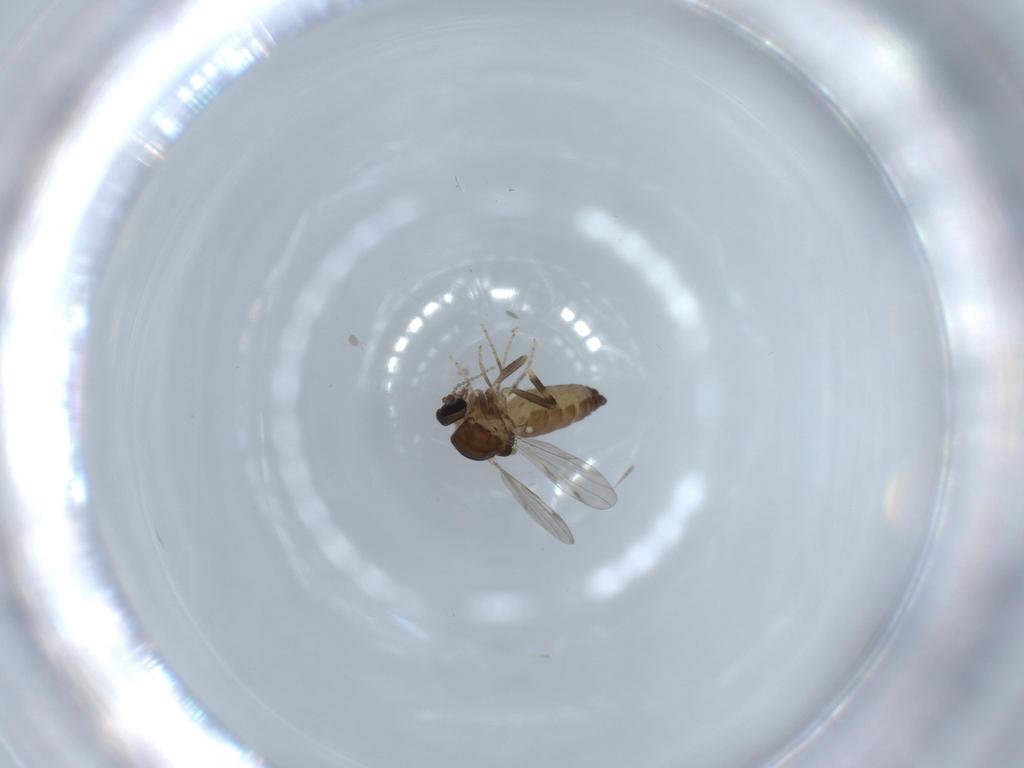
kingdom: Animalia
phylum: Arthropoda
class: Insecta
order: Diptera
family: Ceratopogonidae
